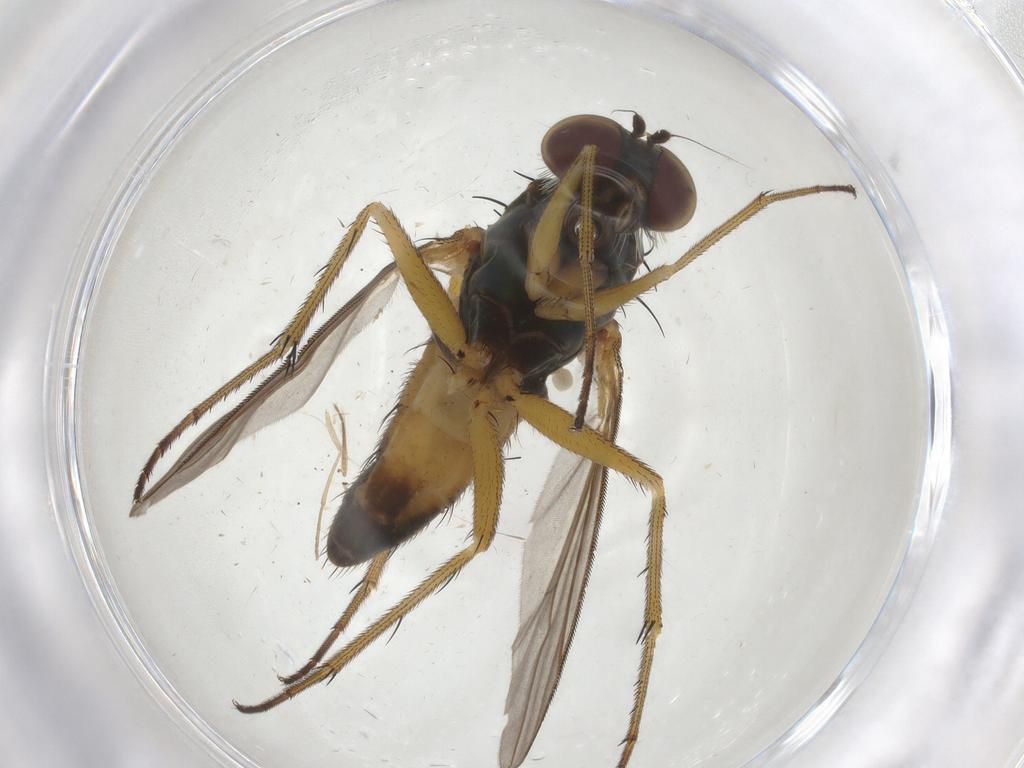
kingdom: Animalia
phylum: Arthropoda
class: Insecta
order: Diptera
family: Dolichopodidae
